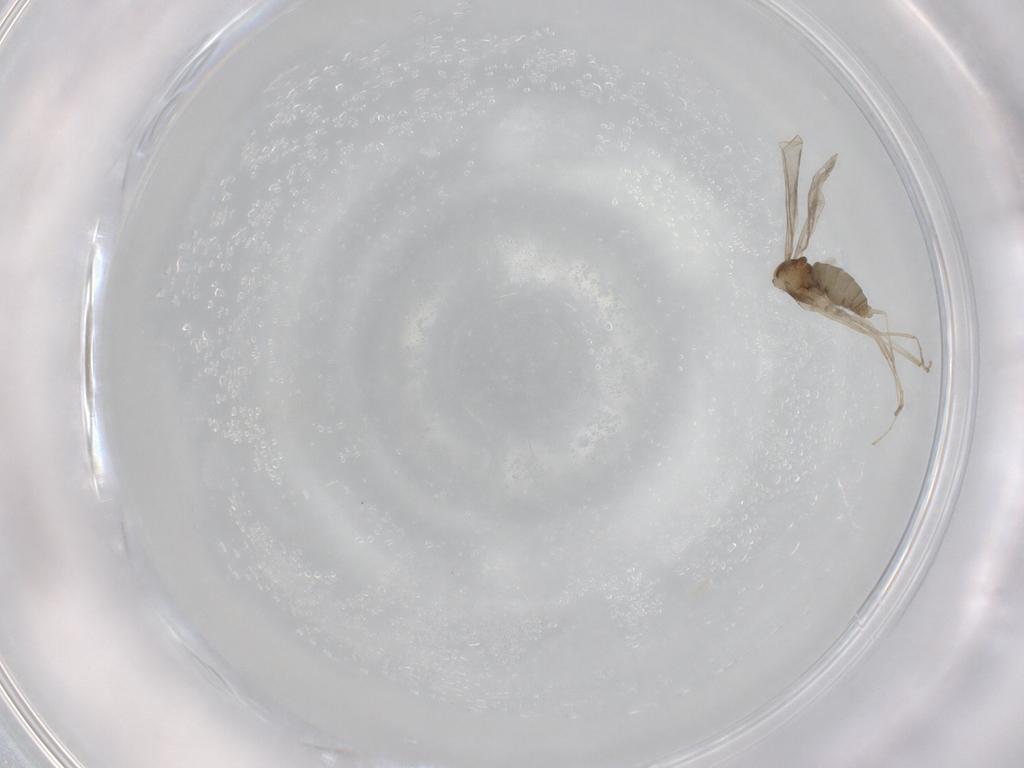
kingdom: Animalia
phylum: Arthropoda
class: Insecta
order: Diptera
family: Cecidomyiidae
